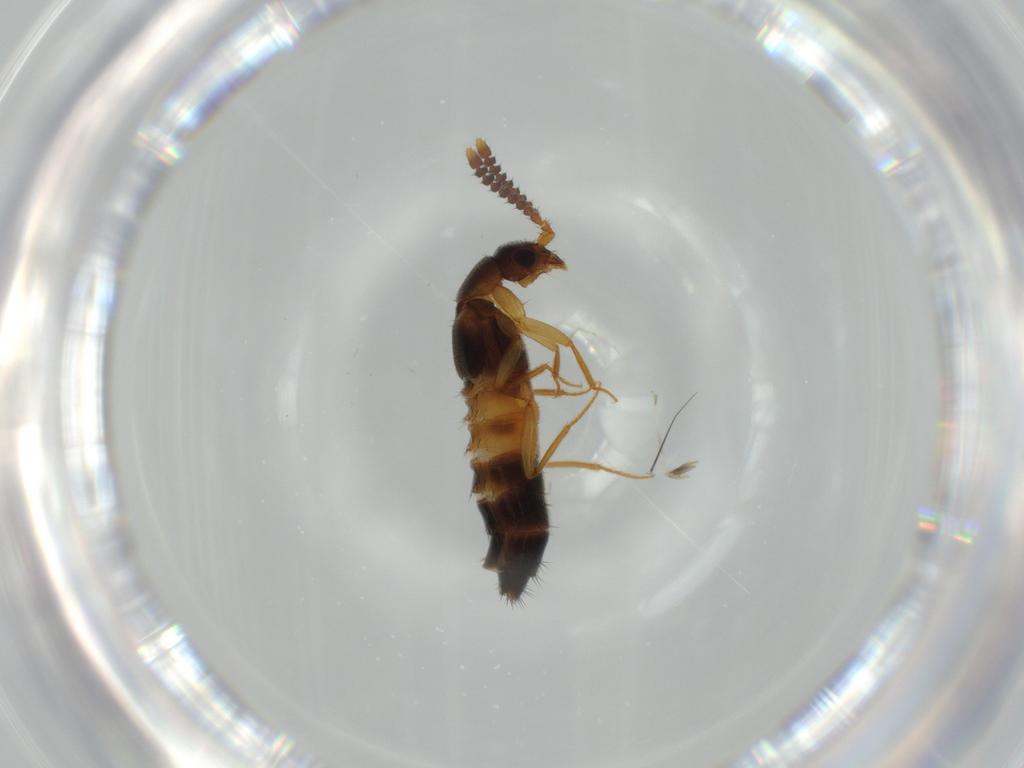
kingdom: Animalia
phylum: Arthropoda
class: Insecta
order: Coleoptera
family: Staphylinidae
